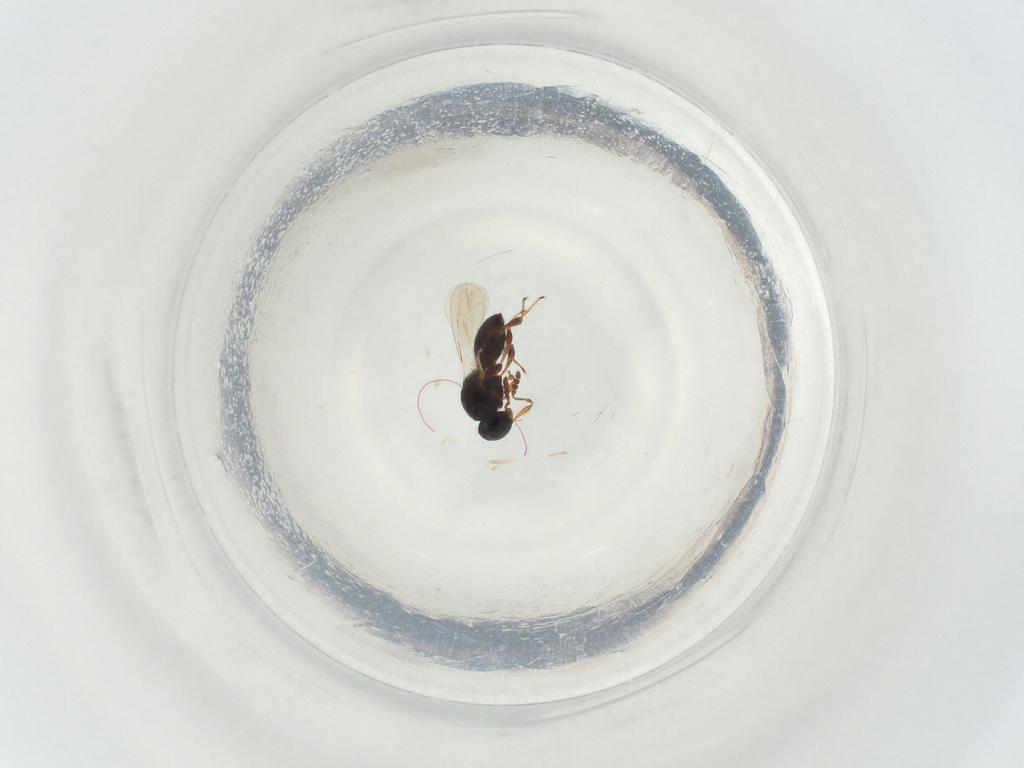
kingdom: Animalia
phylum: Arthropoda
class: Insecta
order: Hymenoptera
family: Platygastridae
